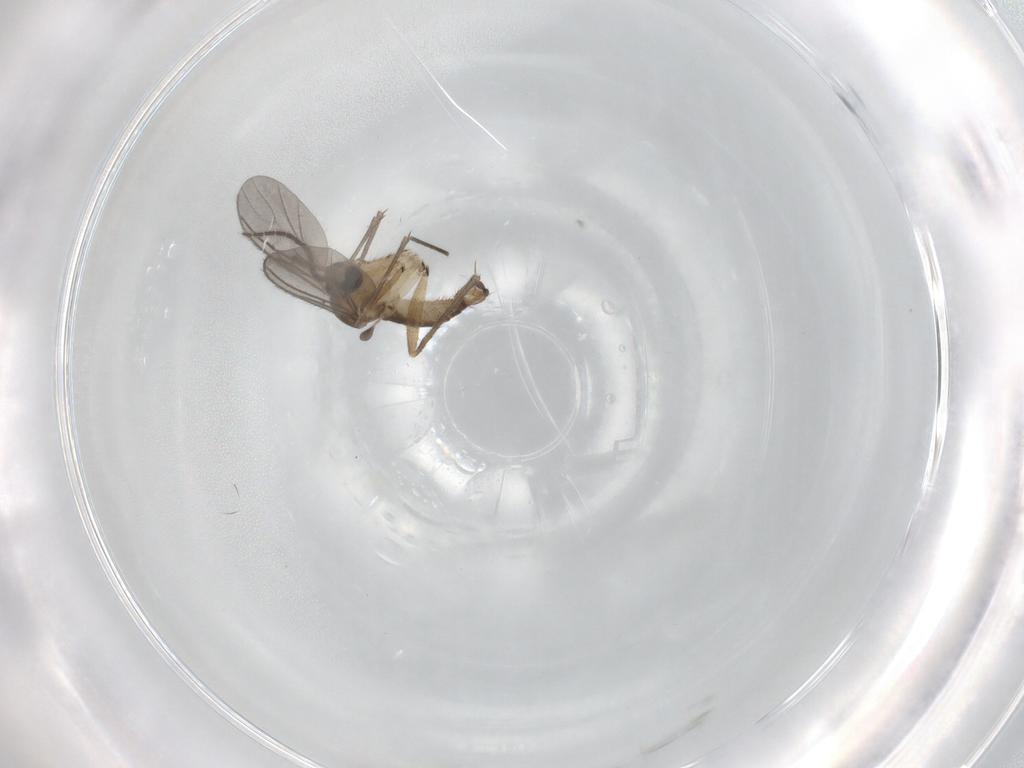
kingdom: Animalia
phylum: Arthropoda
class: Insecta
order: Diptera
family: Sciaridae
